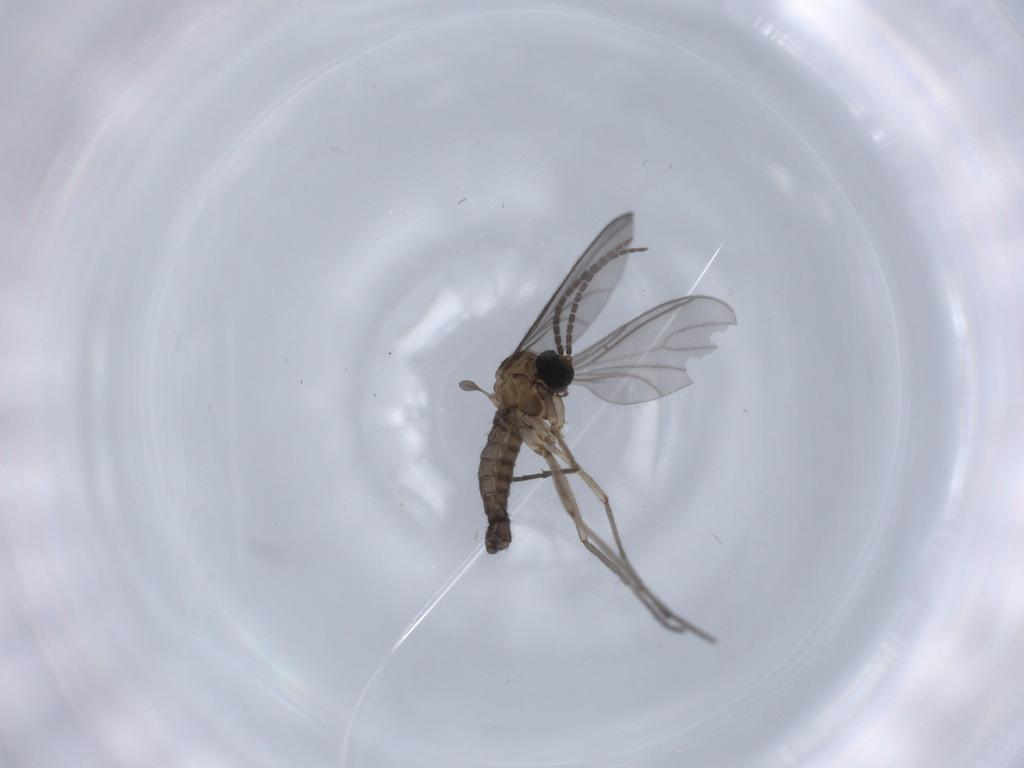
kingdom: Animalia
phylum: Arthropoda
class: Insecta
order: Diptera
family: Sciaridae
